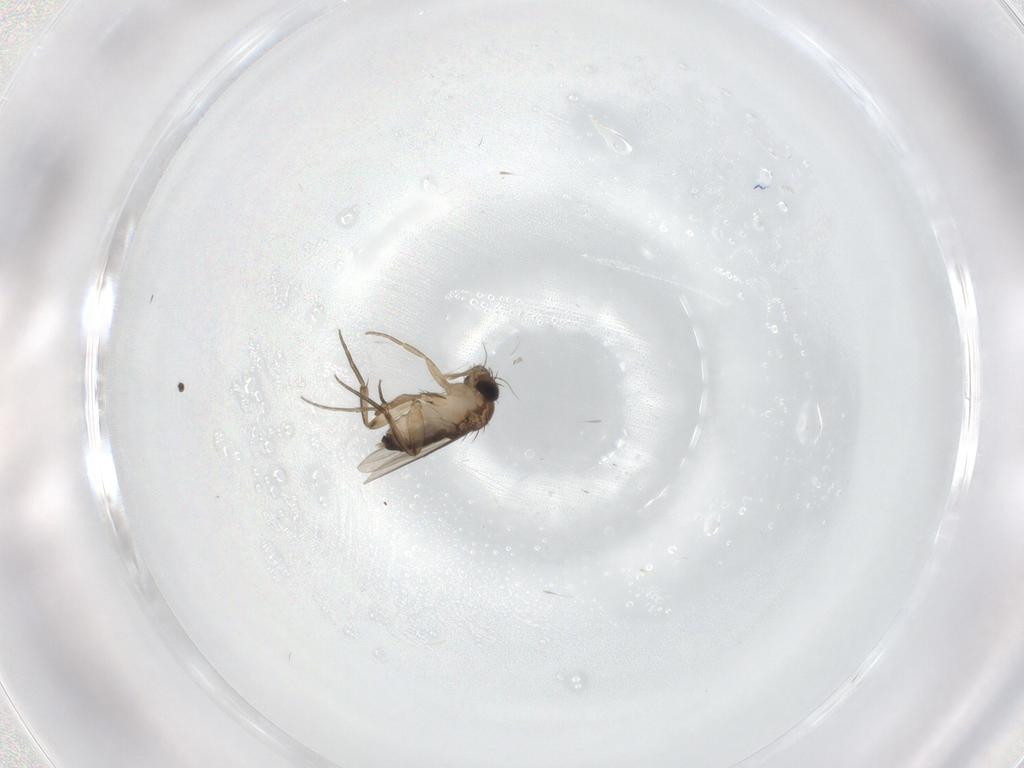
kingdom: Animalia
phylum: Arthropoda
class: Insecta
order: Diptera
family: Phoridae
